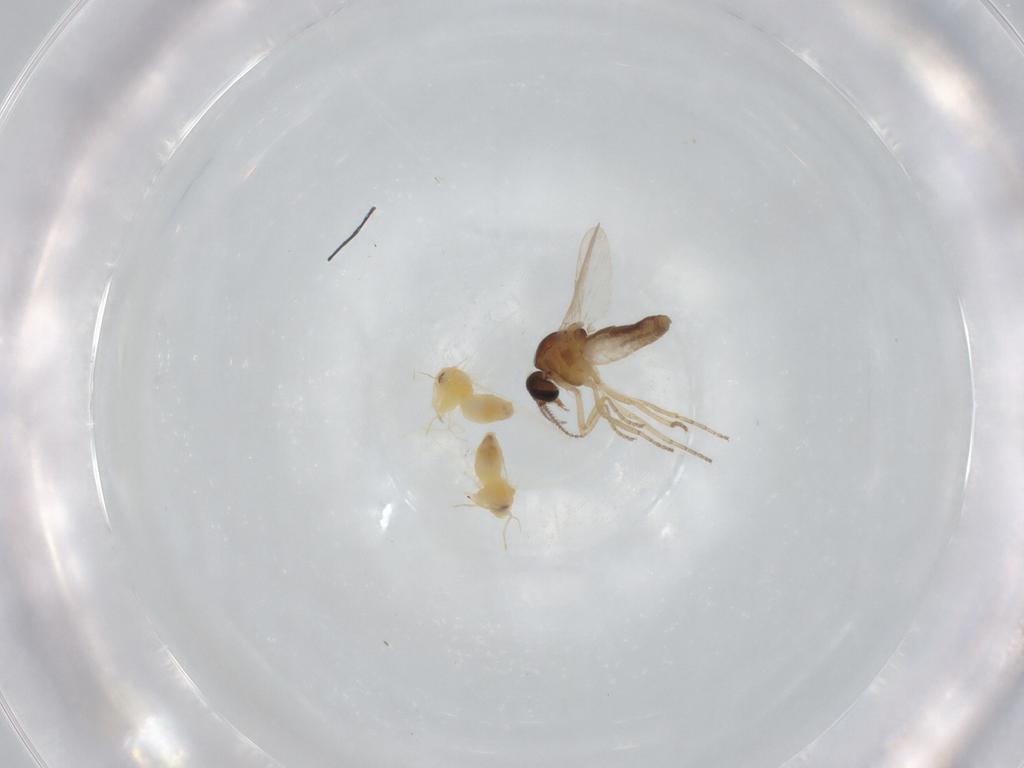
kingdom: Animalia
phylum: Arthropoda
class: Insecta
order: Diptera
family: Ceratopogonidae
